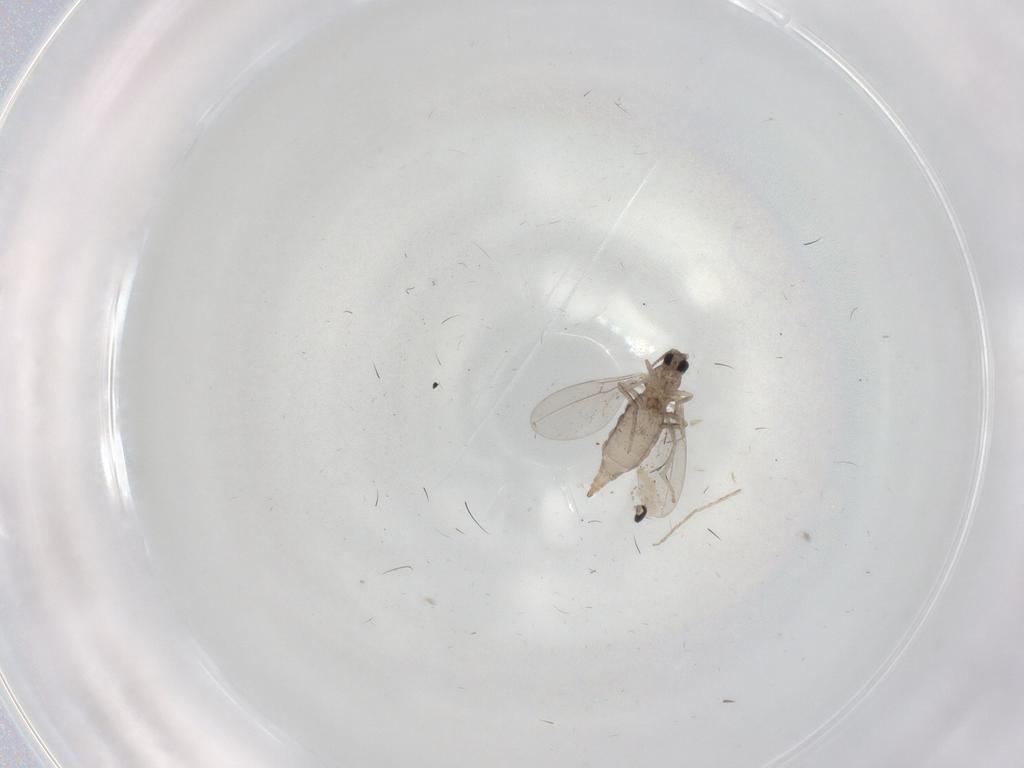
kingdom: Animalia
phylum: Arthropoda
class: Insecta
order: Diptera
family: Cecidomyiidae
